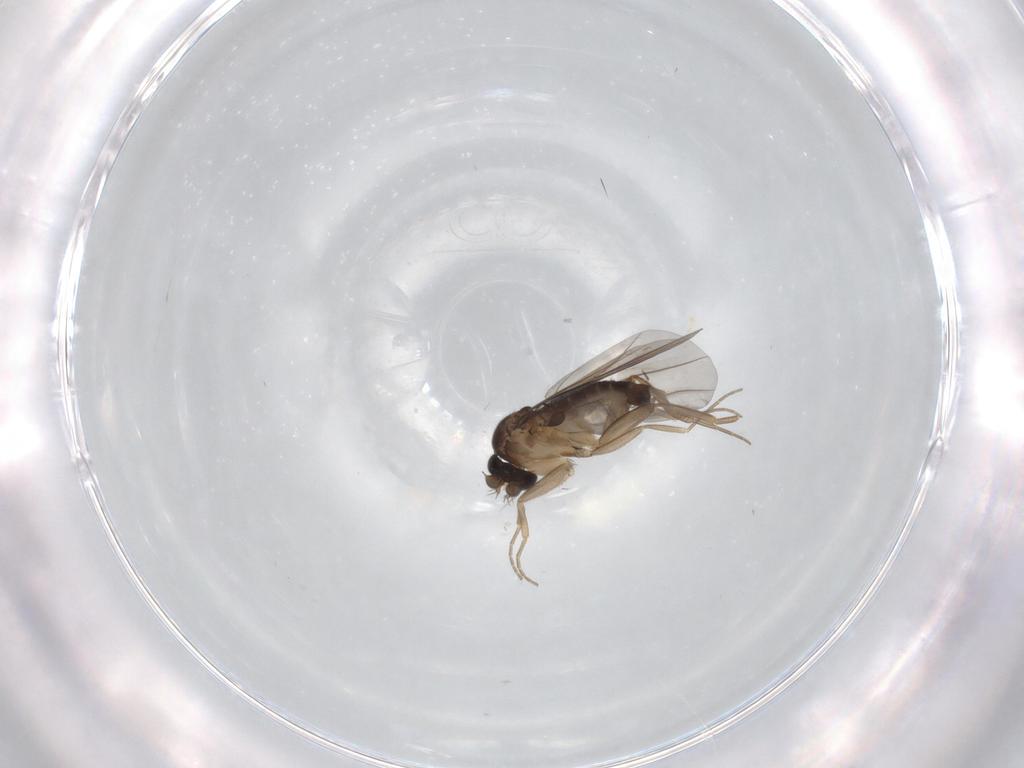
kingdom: Animalia
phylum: Arthropoda
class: Insecta
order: Diptera
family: Phoridae
